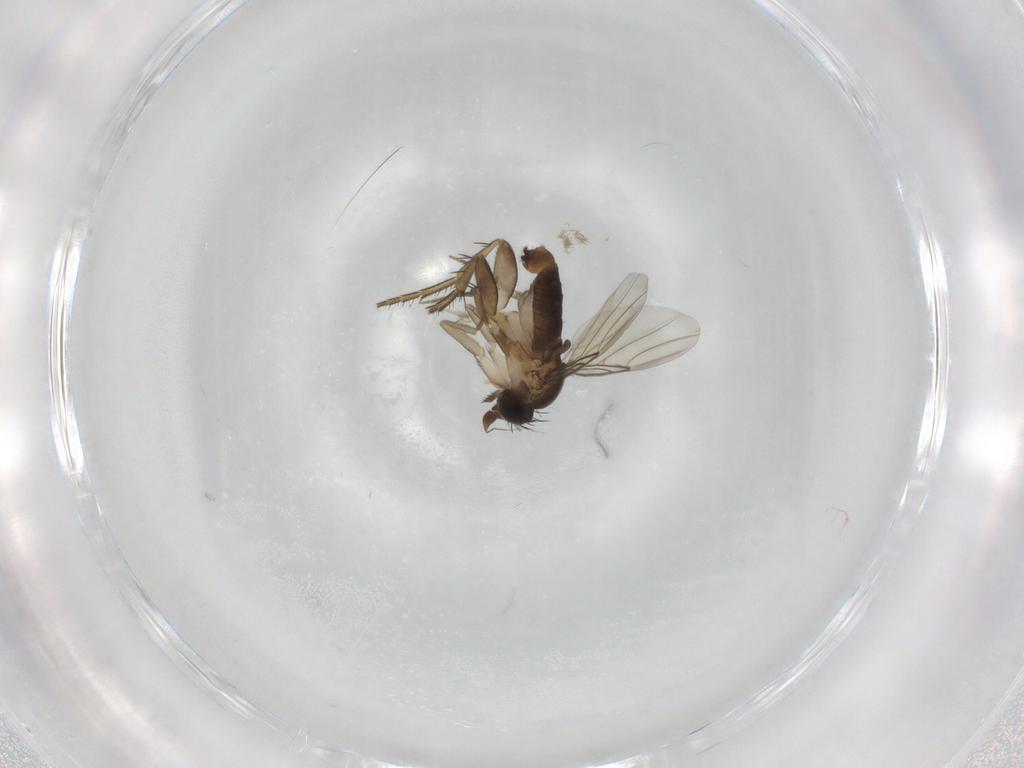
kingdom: Animalia
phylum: Arthropoda
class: Insecta
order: Diptera
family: Phoridae
